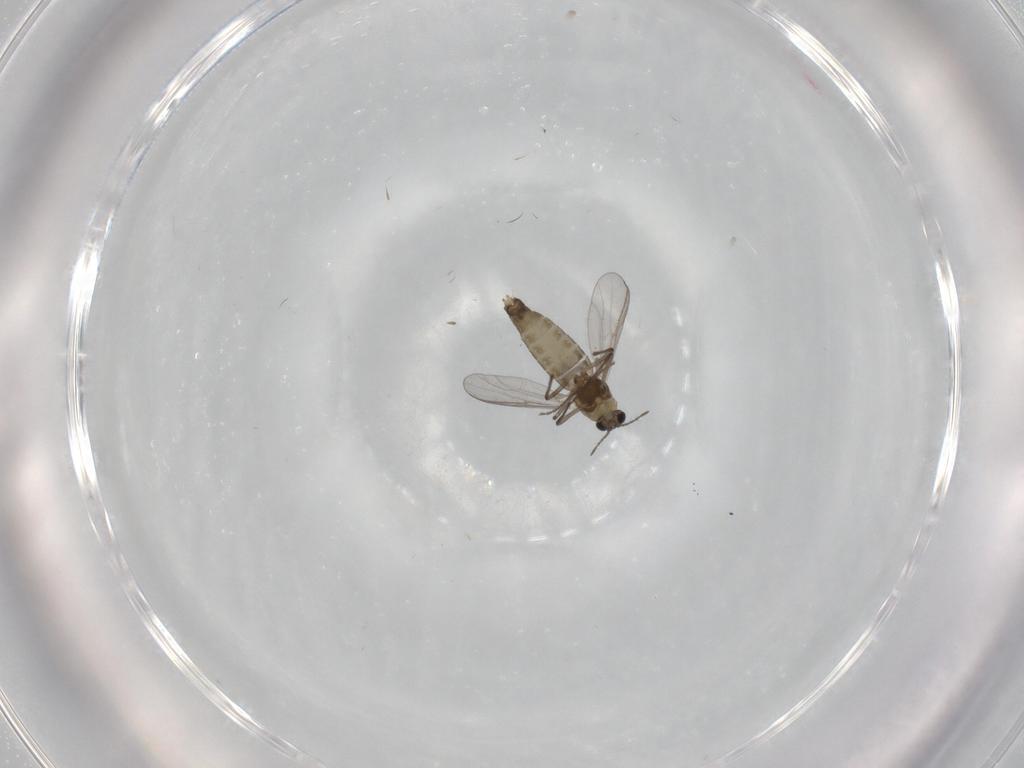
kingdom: Animalia
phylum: Arthropoda
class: Insecta
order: Diptera
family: Chironomidae
